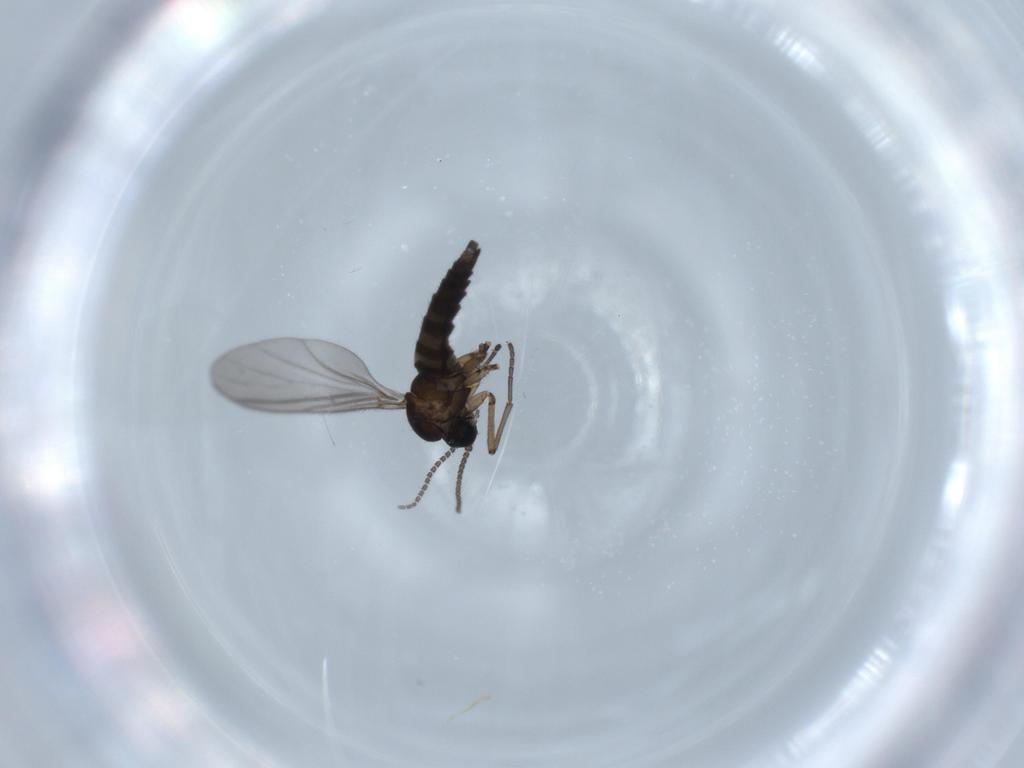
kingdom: Animalia
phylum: Arthropoda
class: Insecta
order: Diptera
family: Sciaridae
